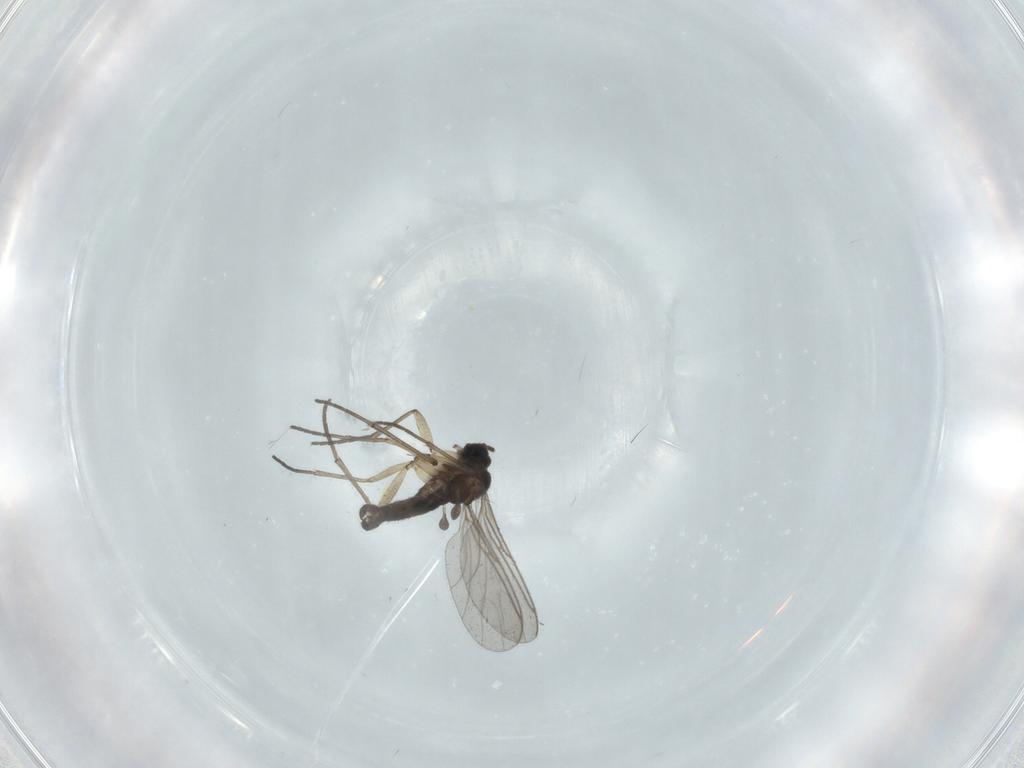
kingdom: Animalia
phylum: Arthropoda
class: Insecta
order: Diptera
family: Sciaridae
